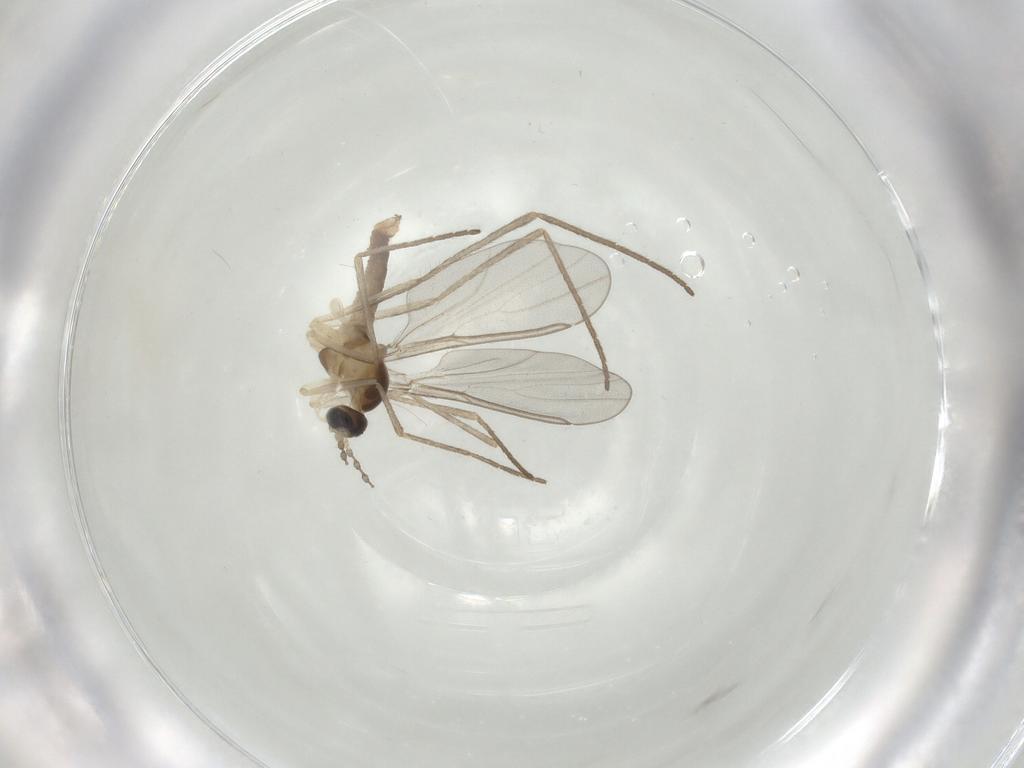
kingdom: Animalia
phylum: Arthropoda
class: Insecta
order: Diptera
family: Cecidomyiidae
